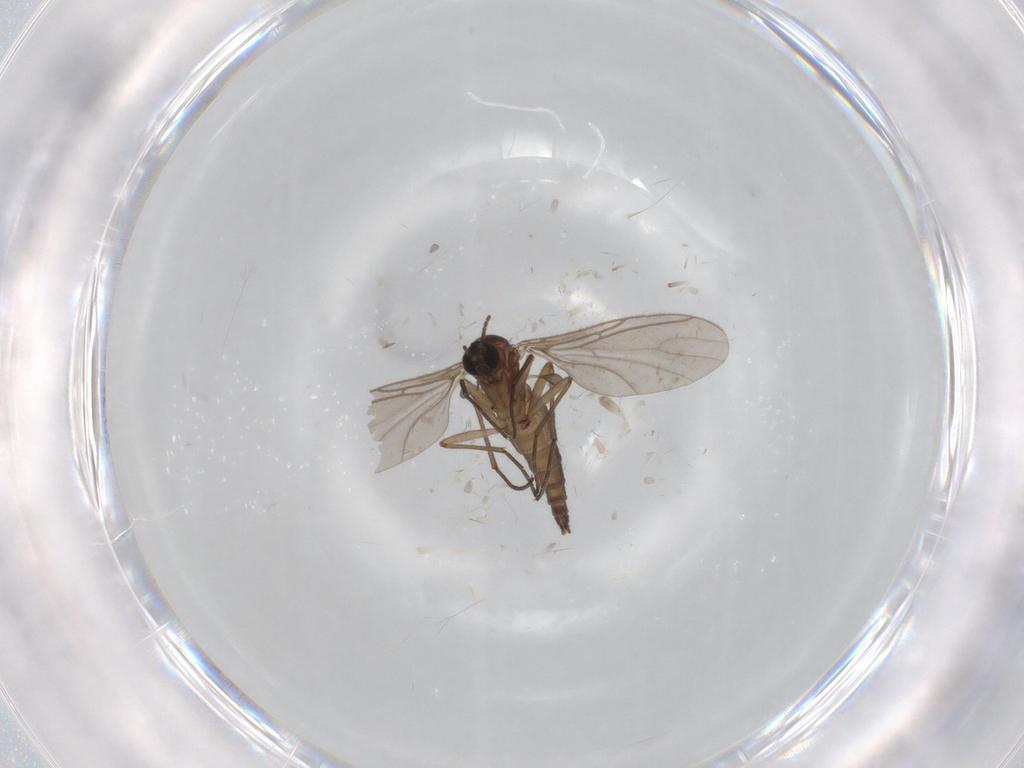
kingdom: Animalia
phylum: Arthropoda
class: Insecta
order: Diptera
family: Sciaridae
